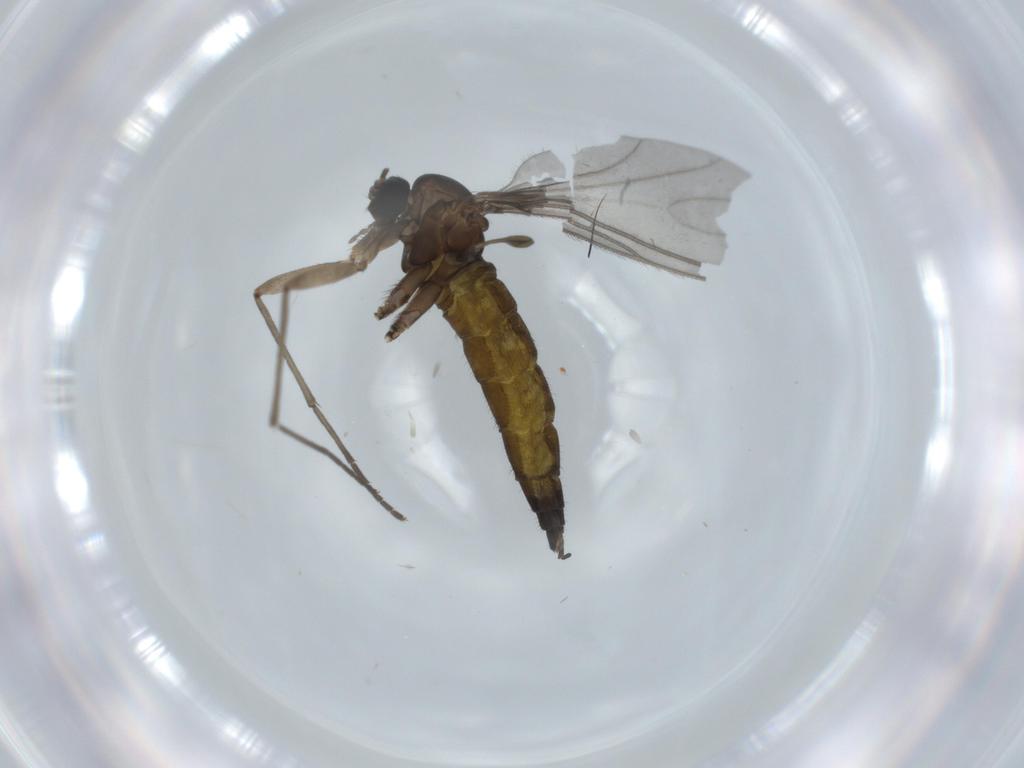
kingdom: Animalia
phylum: Arthropoda
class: Insecta
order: Diptera
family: Sciaridae
